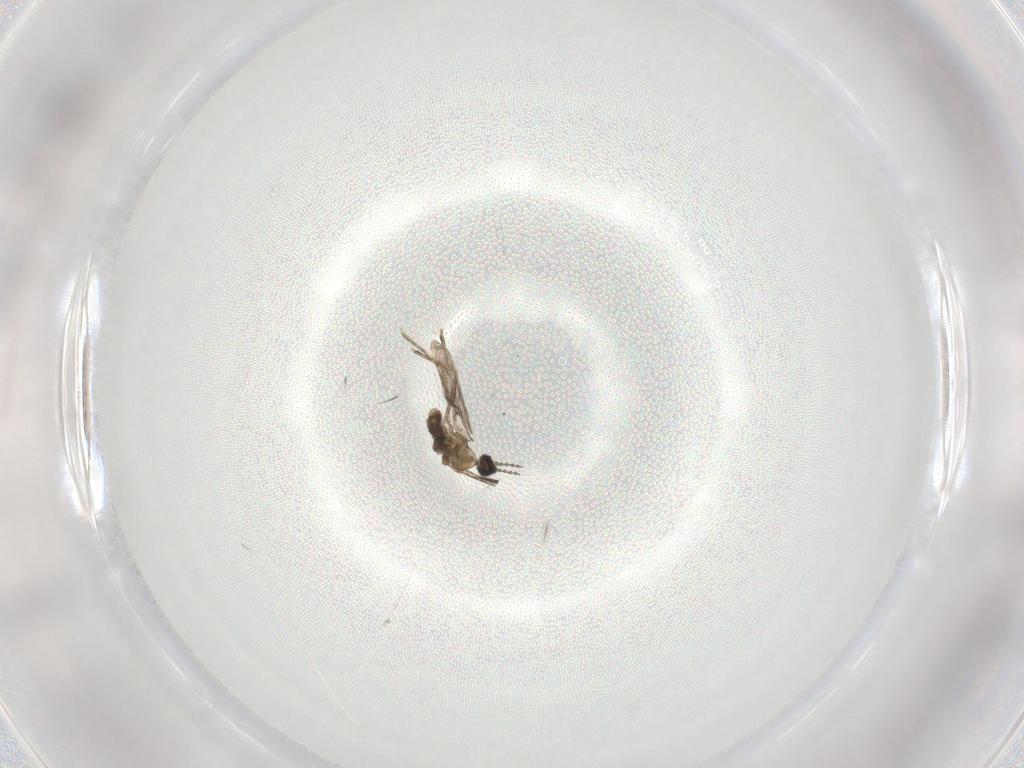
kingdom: Animalia
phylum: Arthropoda
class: Insecta
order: Diptera
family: Cecidomyiidae
